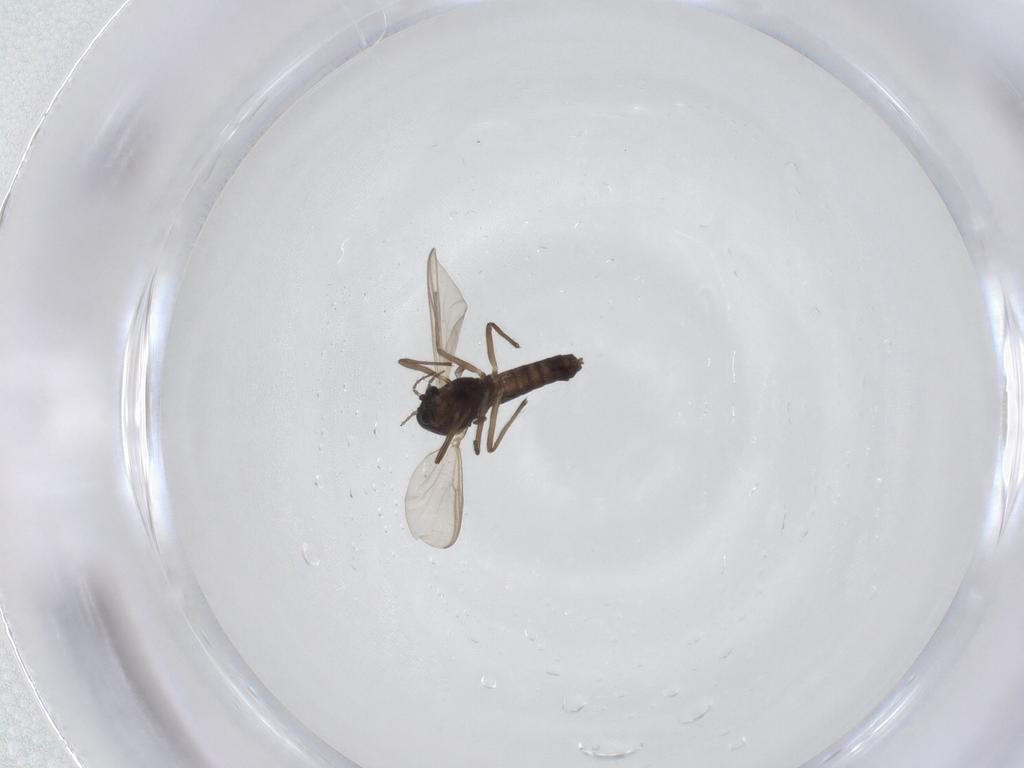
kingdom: Animalia
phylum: Arthropoda
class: Insecta
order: Diptera
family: Chironomidae
